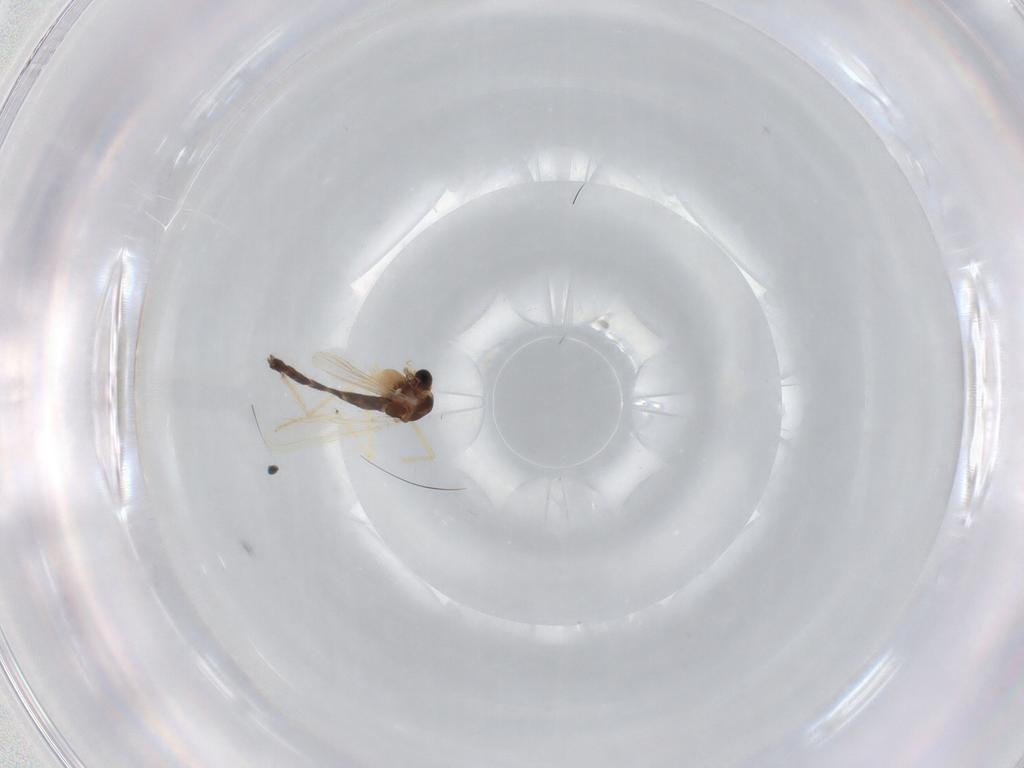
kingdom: Animalia
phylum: Arthropoda
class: Insecta
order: Diptera
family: Chironomidae
